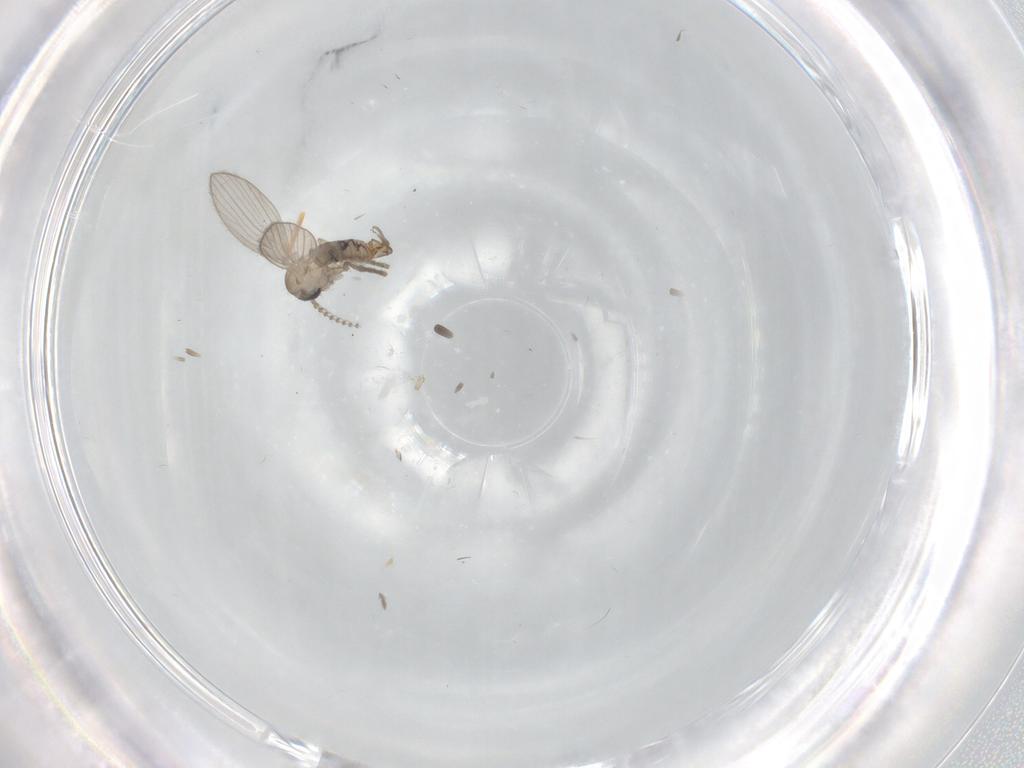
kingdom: Animalia
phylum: Arthropoda
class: Insecta
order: Diptera
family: Psychodidae
